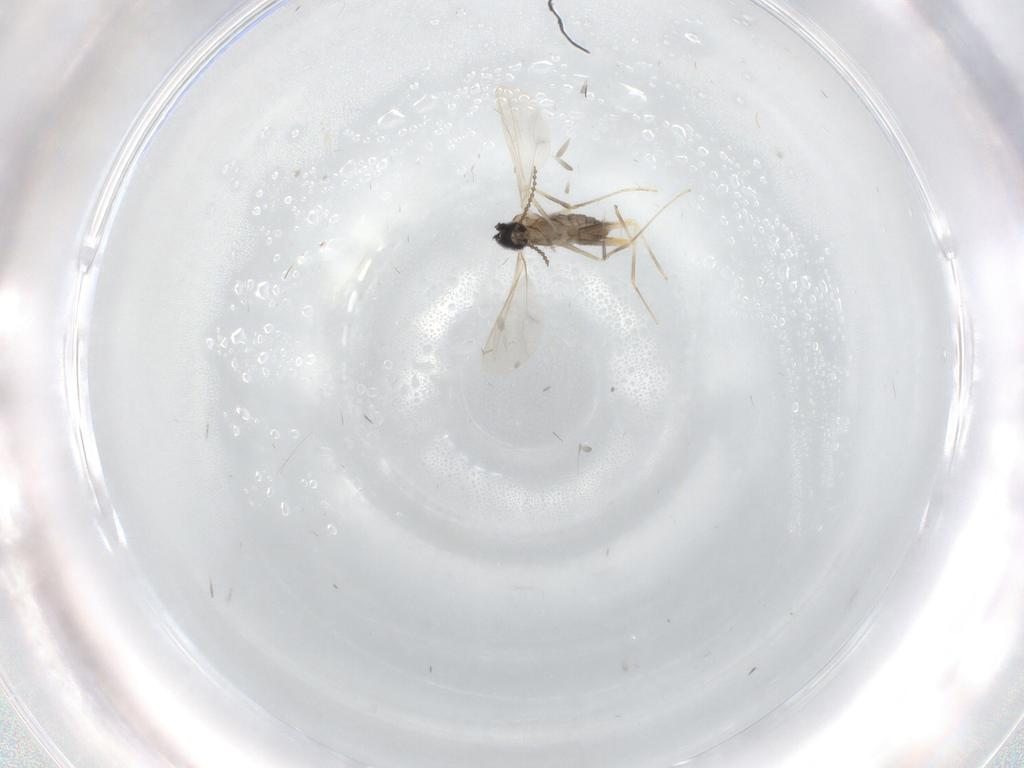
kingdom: Animalia
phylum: Arthropoda
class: Insecta
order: Diptera
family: Cecidomyiidae
